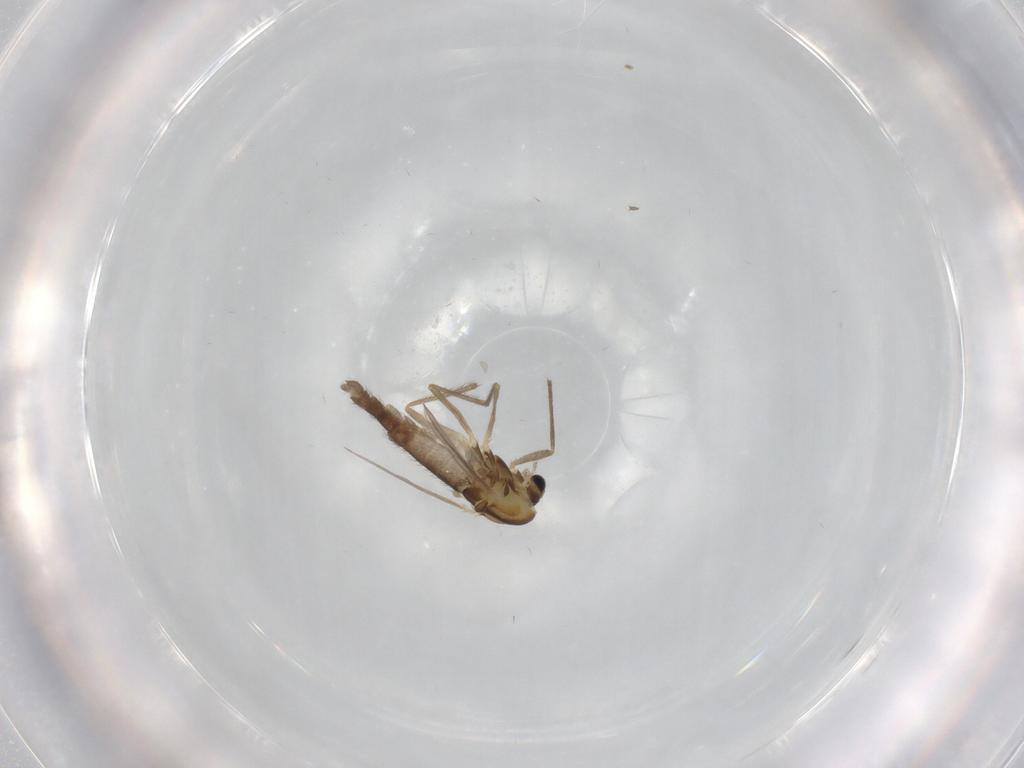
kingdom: Animalia
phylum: Arthropoda
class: Insecta
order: Diptera
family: Chironomidae
